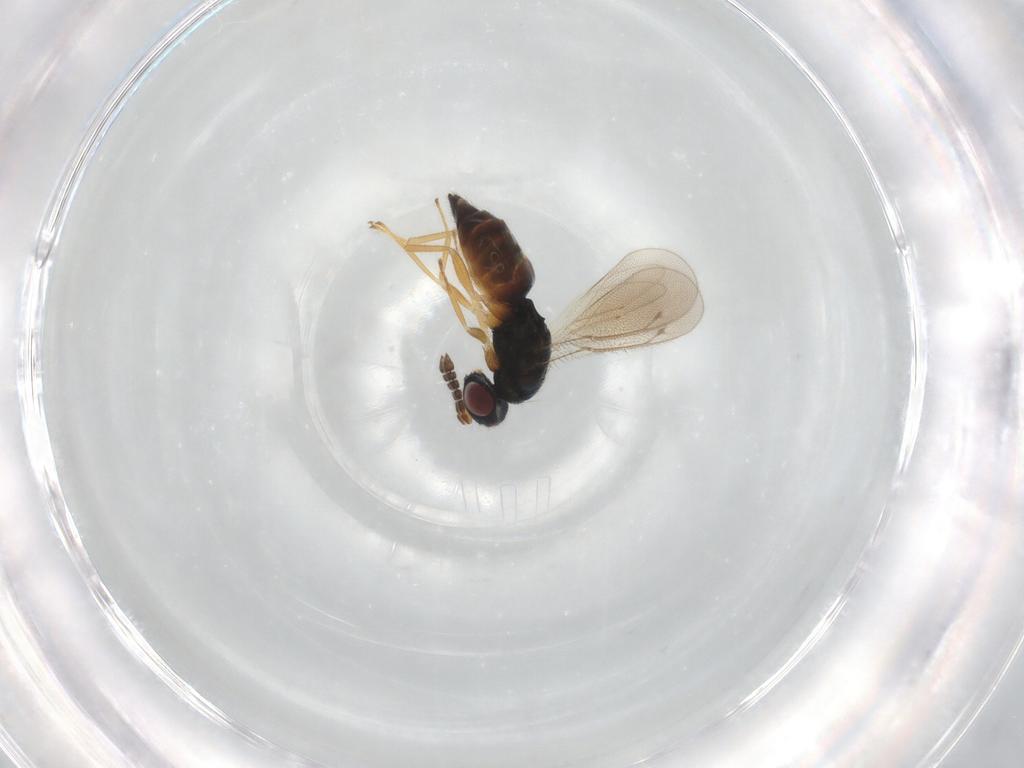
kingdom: Animalia
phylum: Arthropoda
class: Insecta
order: Hymenoptera
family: Eulophidae
